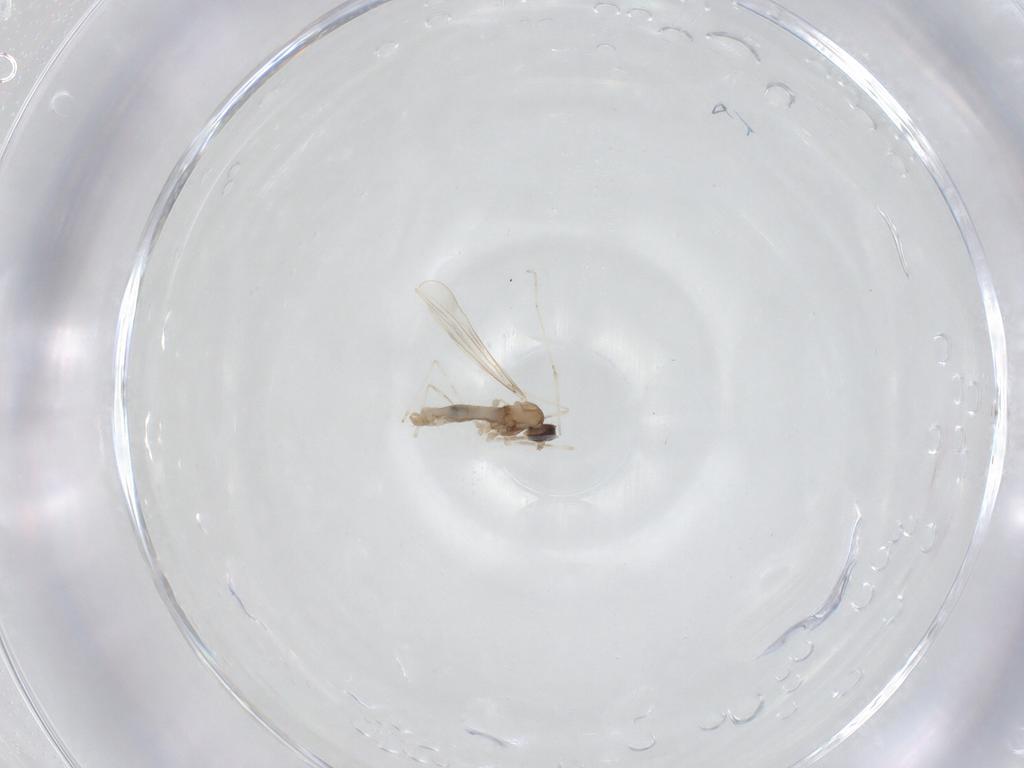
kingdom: Animalia
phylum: Arthropoda
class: Insecta
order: Diptera
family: Cecidomyiidae
